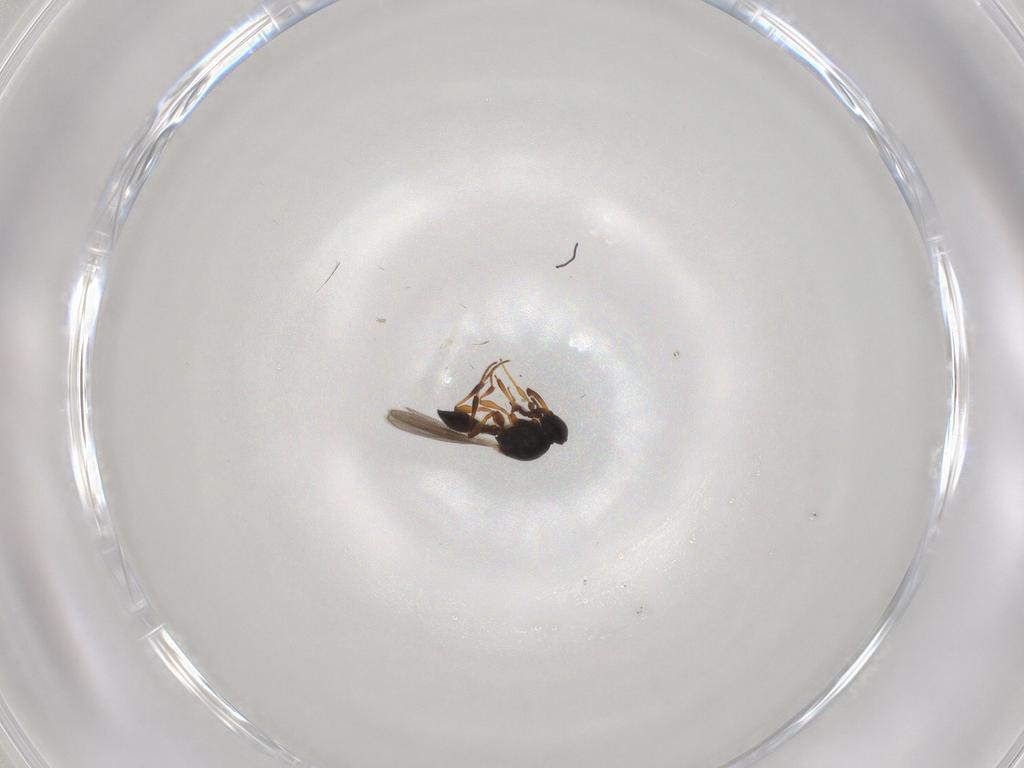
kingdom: Animalia
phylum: Arthropoda
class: Insecta
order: Hymenoptera
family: Platygastridae
